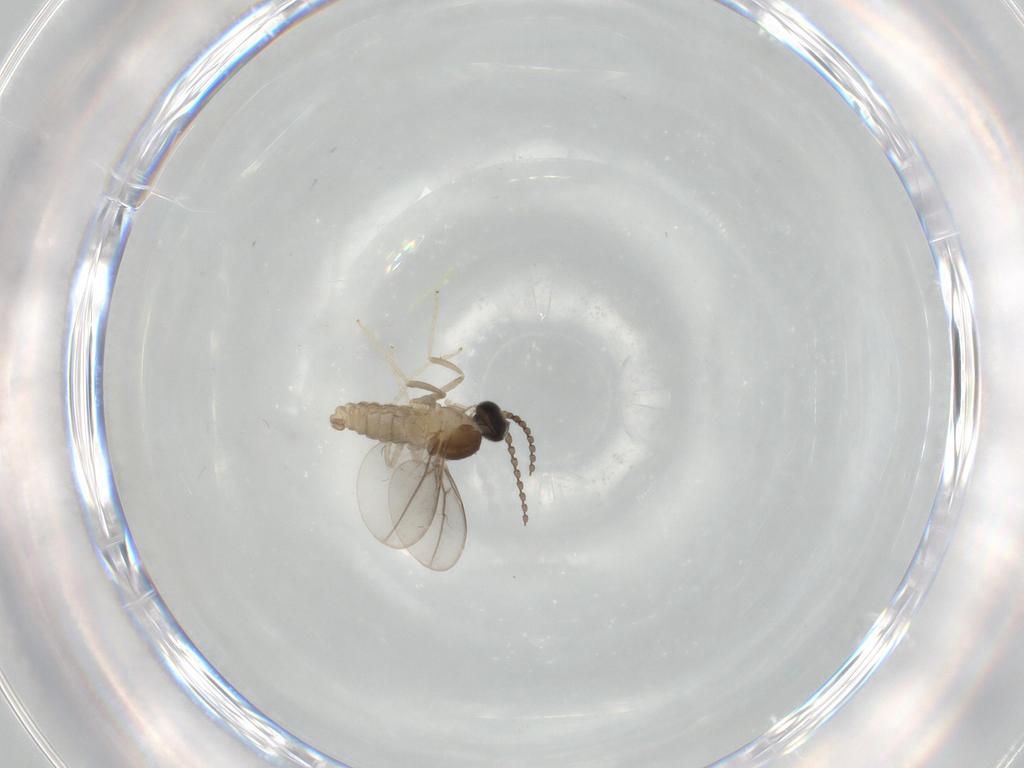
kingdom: Animalia
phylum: Arthropoda
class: Insecta
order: Diptera
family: Cecidomyiidae
